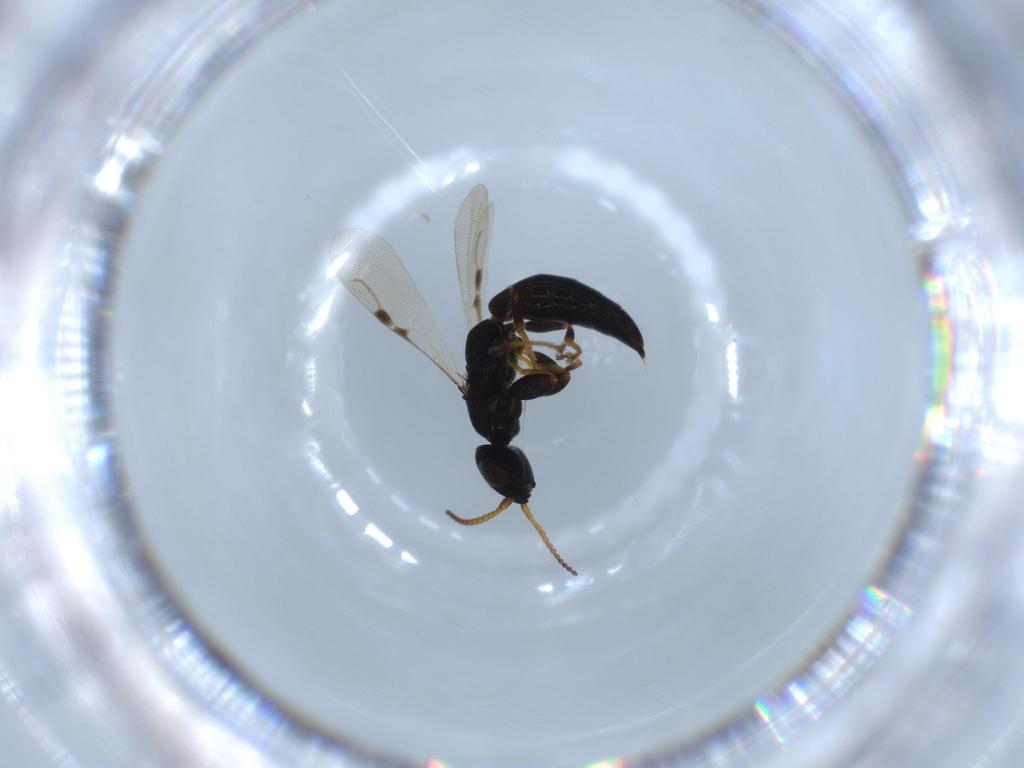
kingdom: Animalia
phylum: Arthropoda
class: Insecta
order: Hymenoptera
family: Bethylidae
